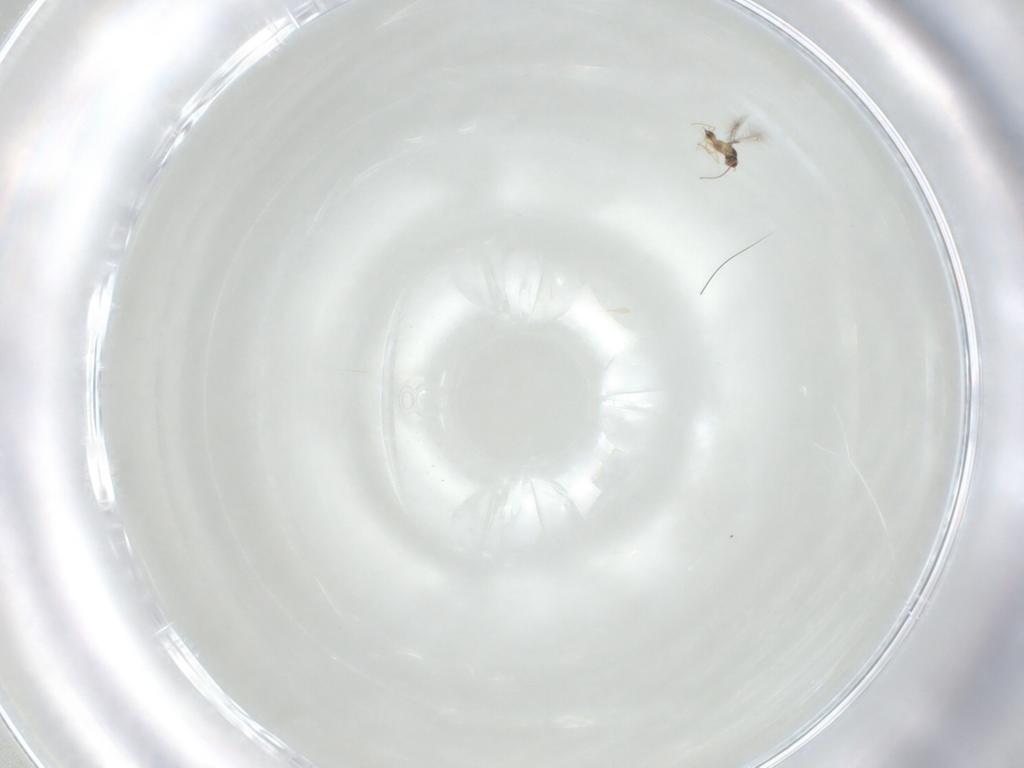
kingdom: Animalia
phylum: Arthropoda
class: Insecta
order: Hymenoptera
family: Mymaridae
